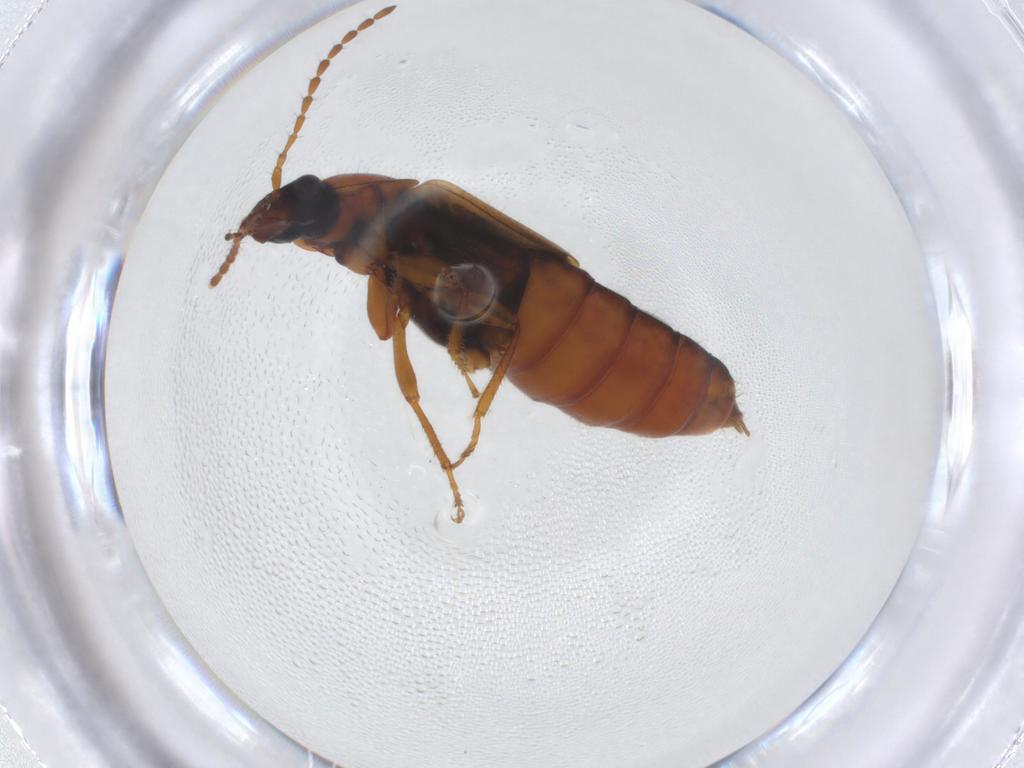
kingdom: Animalia
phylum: Arthropoda
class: Insecta
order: Coleoptera
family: Staphylinidae
